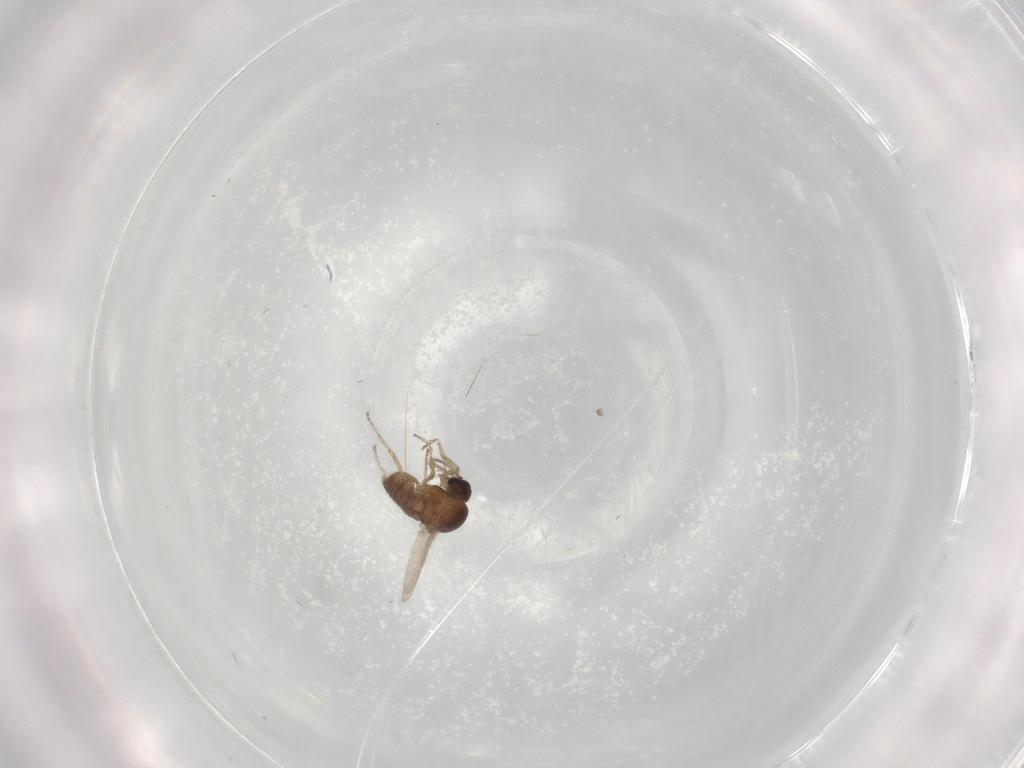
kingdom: Animalia
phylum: Arthropoda
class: Insecta
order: Diptera
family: Ceratopogonidae
